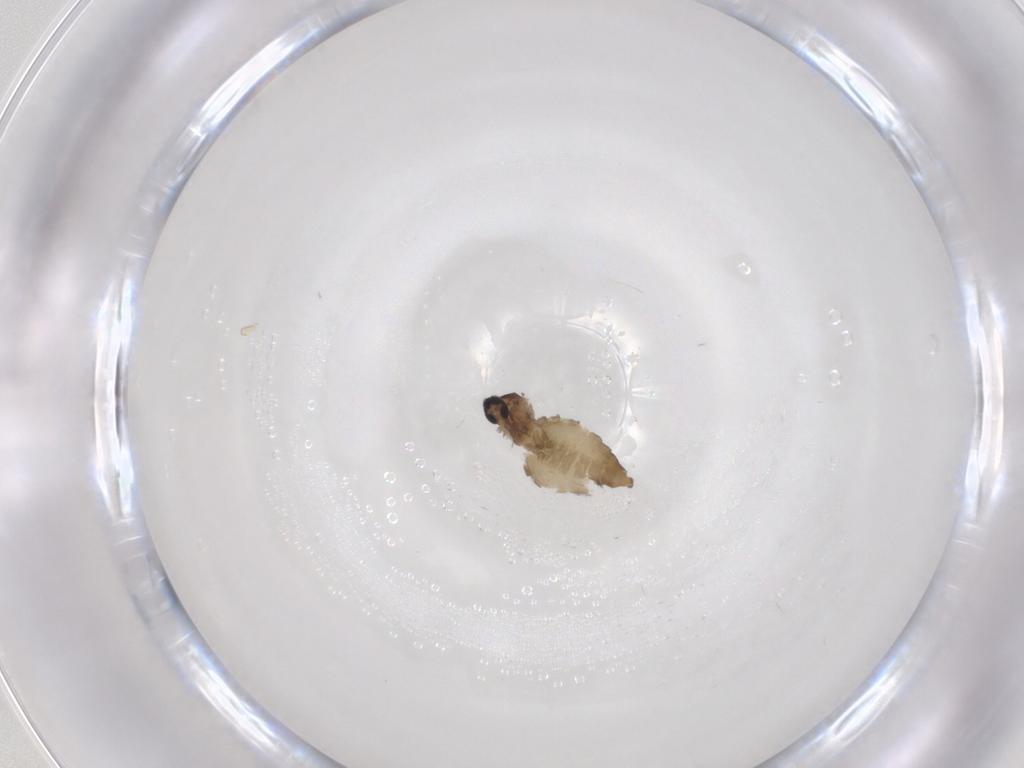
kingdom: Animalia
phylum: Arthropoda
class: Insecta
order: Diptera
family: Cecidomyiidae
